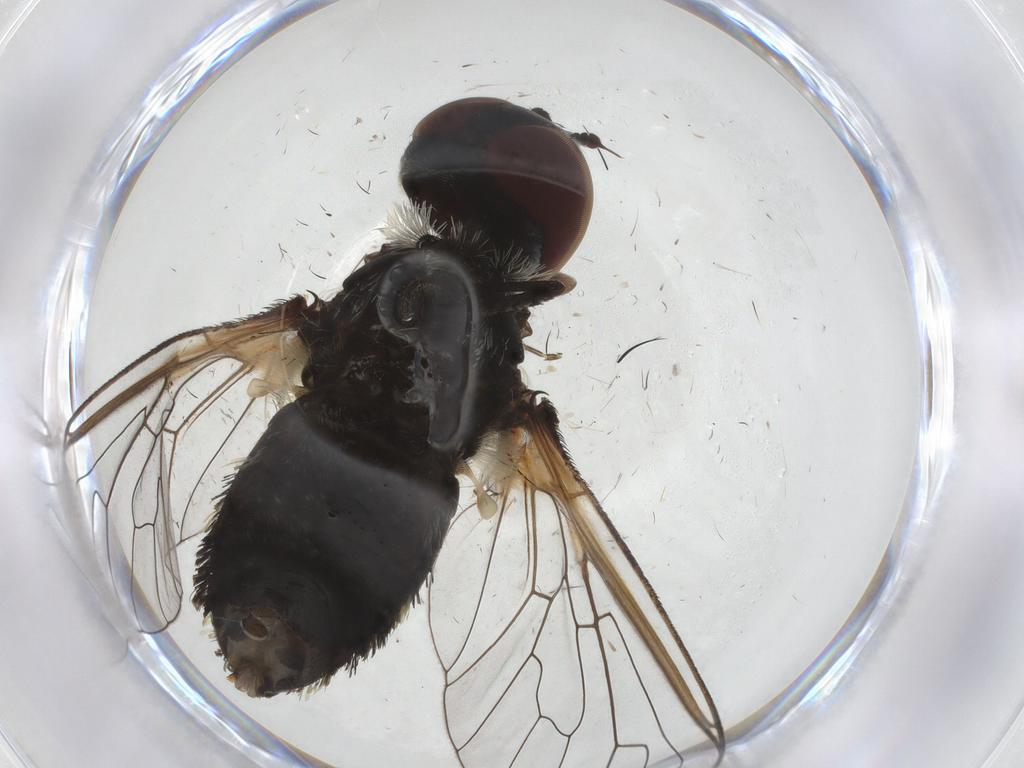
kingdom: Animalia
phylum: Arthropoda
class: Insecta
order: Diptera
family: Bombyliidae
